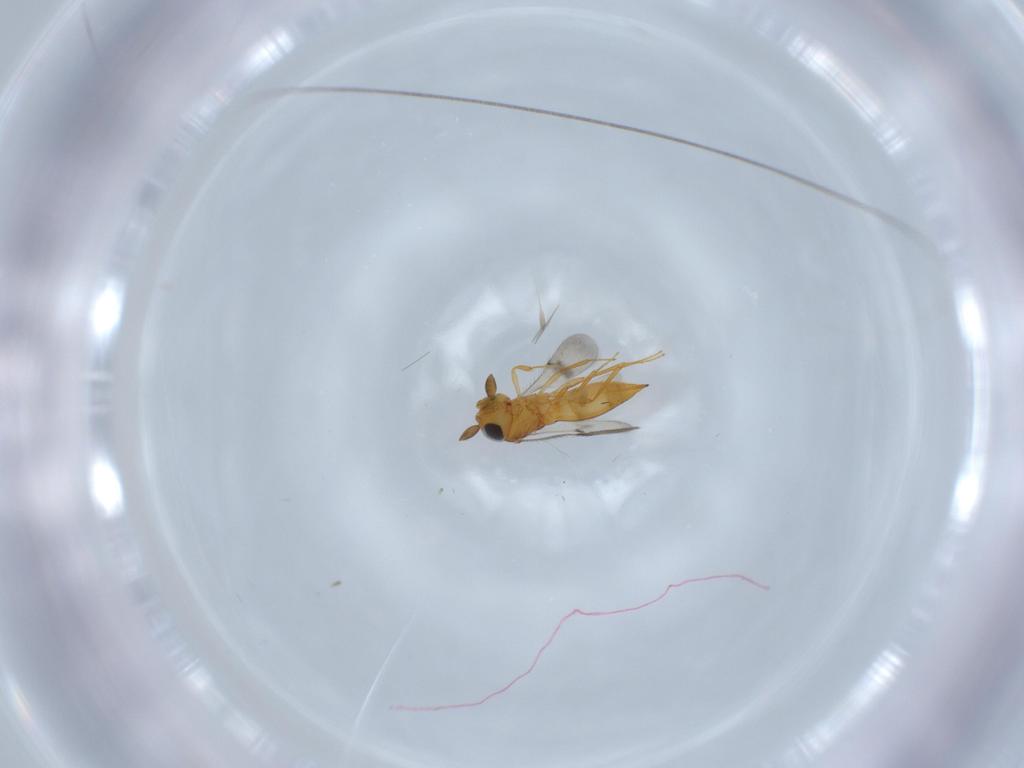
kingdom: Animalia
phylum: Arthropoda
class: Insecta
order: Hymenoptera
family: Scelionidae
